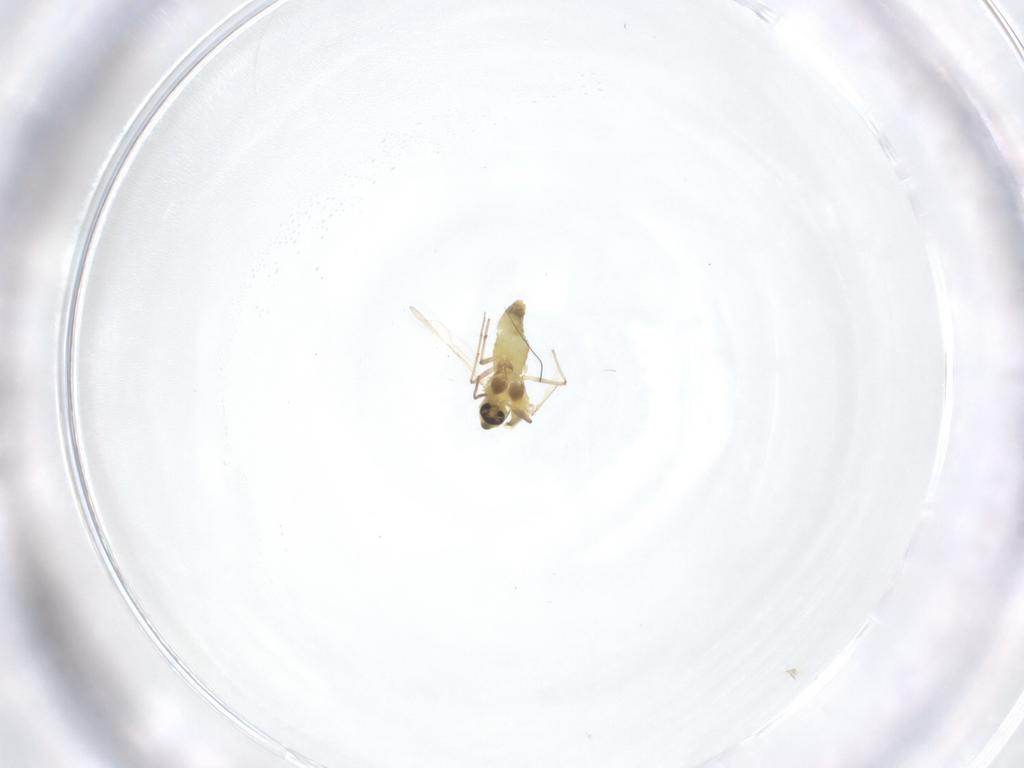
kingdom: Animalia
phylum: Arthropoda
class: Insecta
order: Diptera
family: Chironomidae
